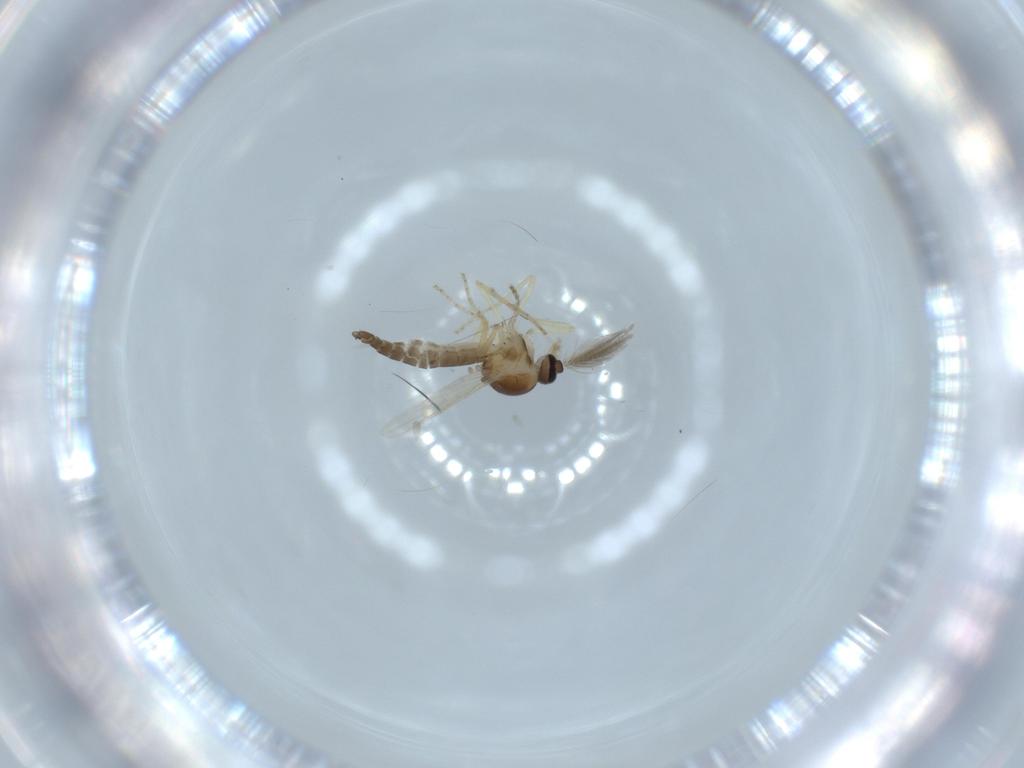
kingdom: Animalia
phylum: Arthropoda
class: Insecta
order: Diptera
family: Ceratopogonidae
